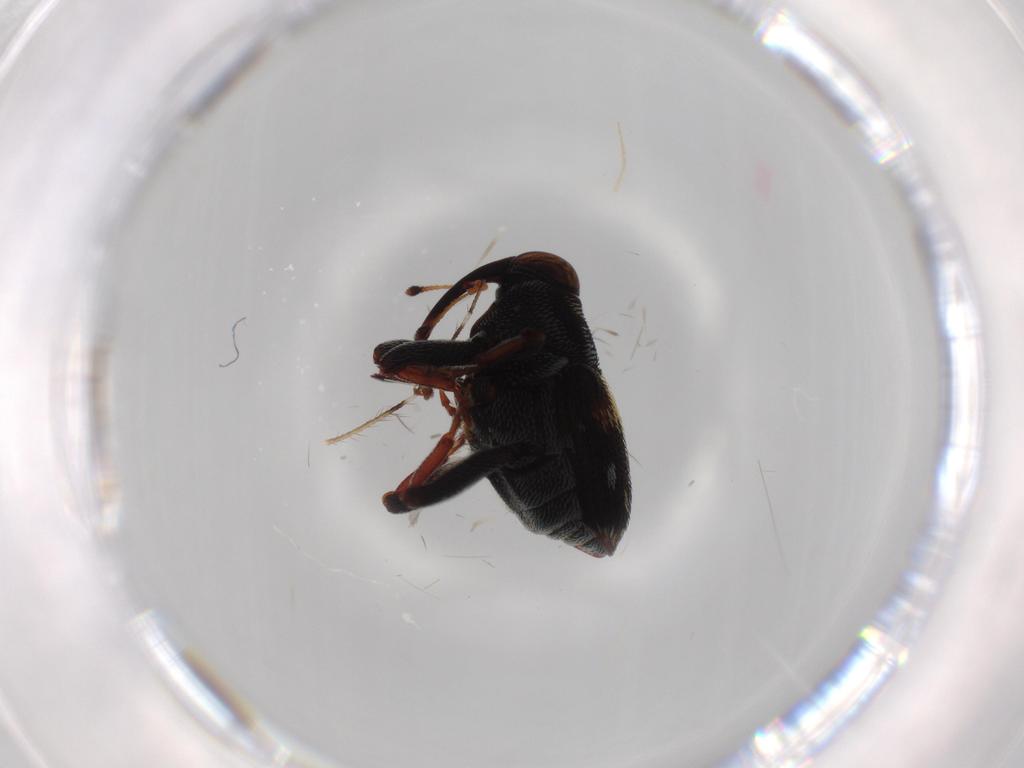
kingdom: Animalia
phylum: Arthropoda
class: Insecta
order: Coleoptera
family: Curculionidae
